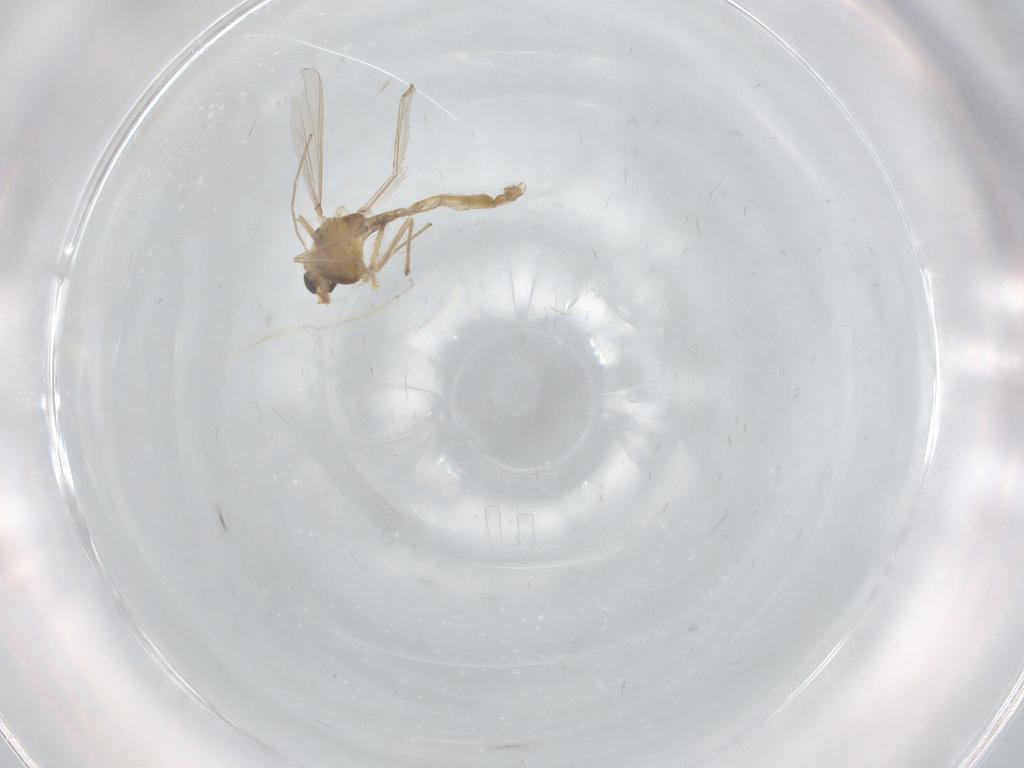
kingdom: Animalia
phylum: Arthropoda
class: Insecta
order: Diptera
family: Chironomidae
